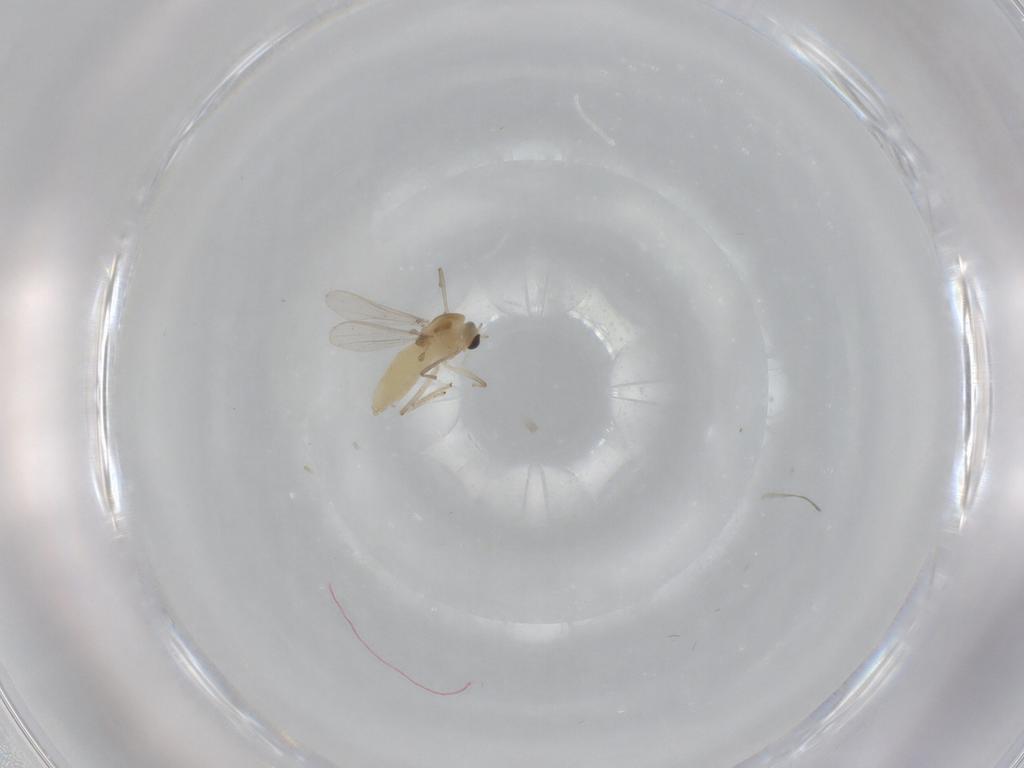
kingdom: Animalia
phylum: Arthropoda
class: Insecta
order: Diptera
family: Chironomidae
